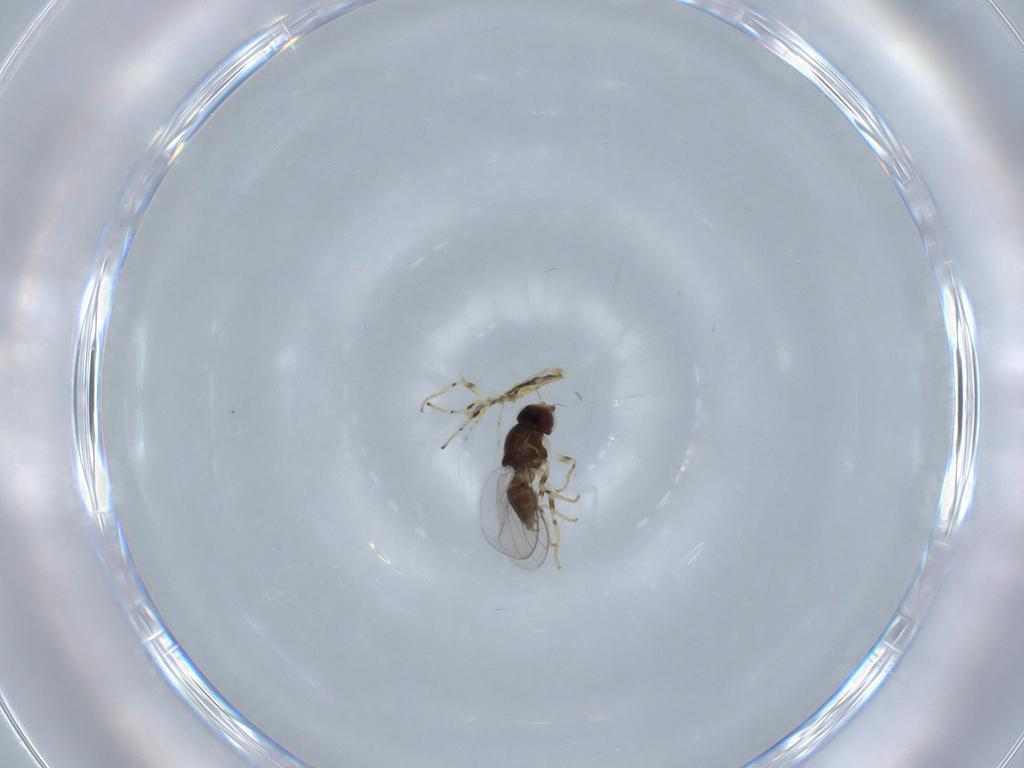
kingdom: Animalia
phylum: Arthropoda
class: Insecta
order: Diptera
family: Chloropidae
